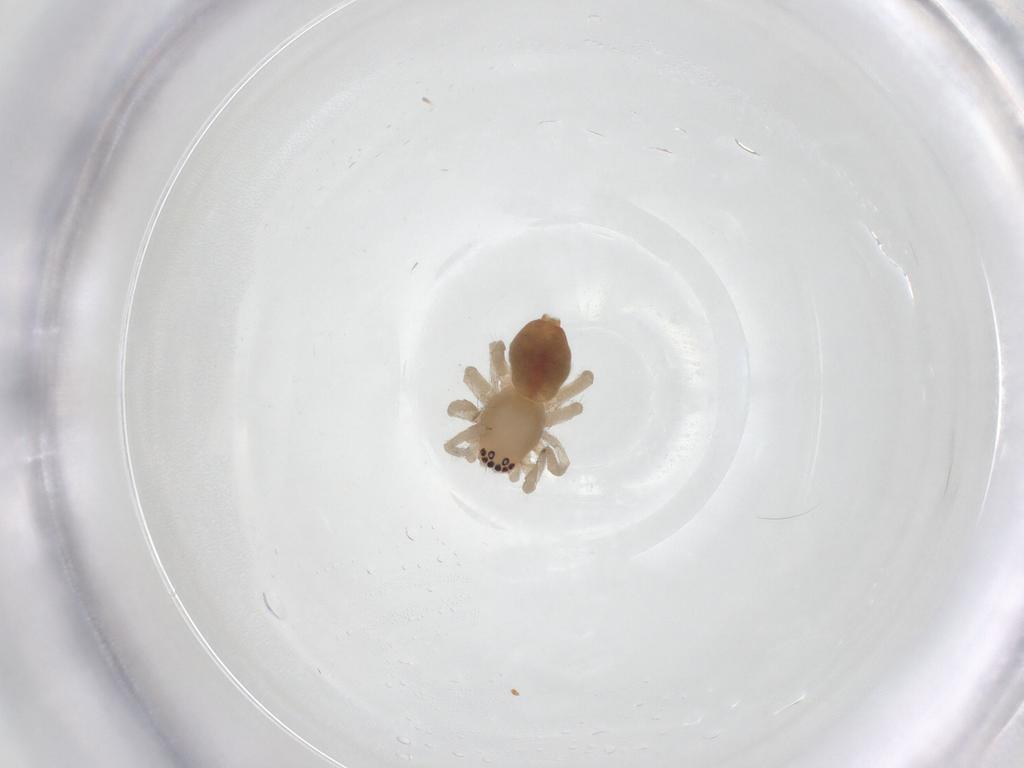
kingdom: Animalia
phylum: Arthropoda
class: Arachnida
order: Araneae
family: Clubionidae
